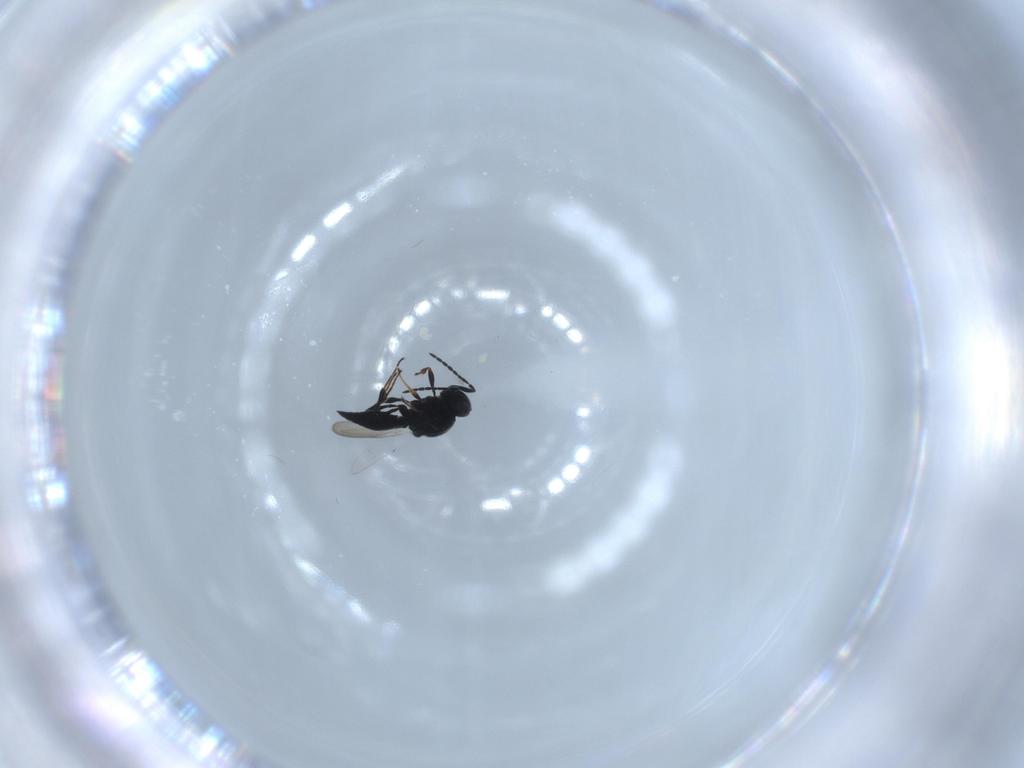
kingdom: Animalia
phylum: Arthropoda
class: Insecta
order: Diptera
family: Mythicomyiidae
